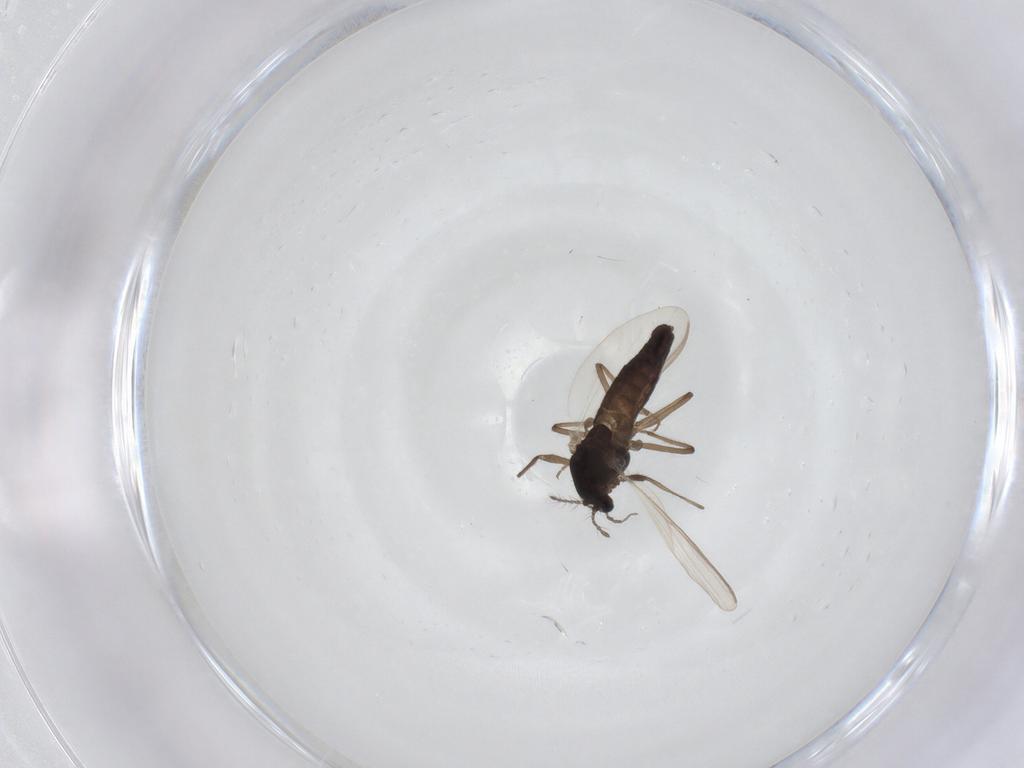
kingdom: Animalia
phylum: Arthropoda
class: Insecta
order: Diptera
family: Chironomidae
